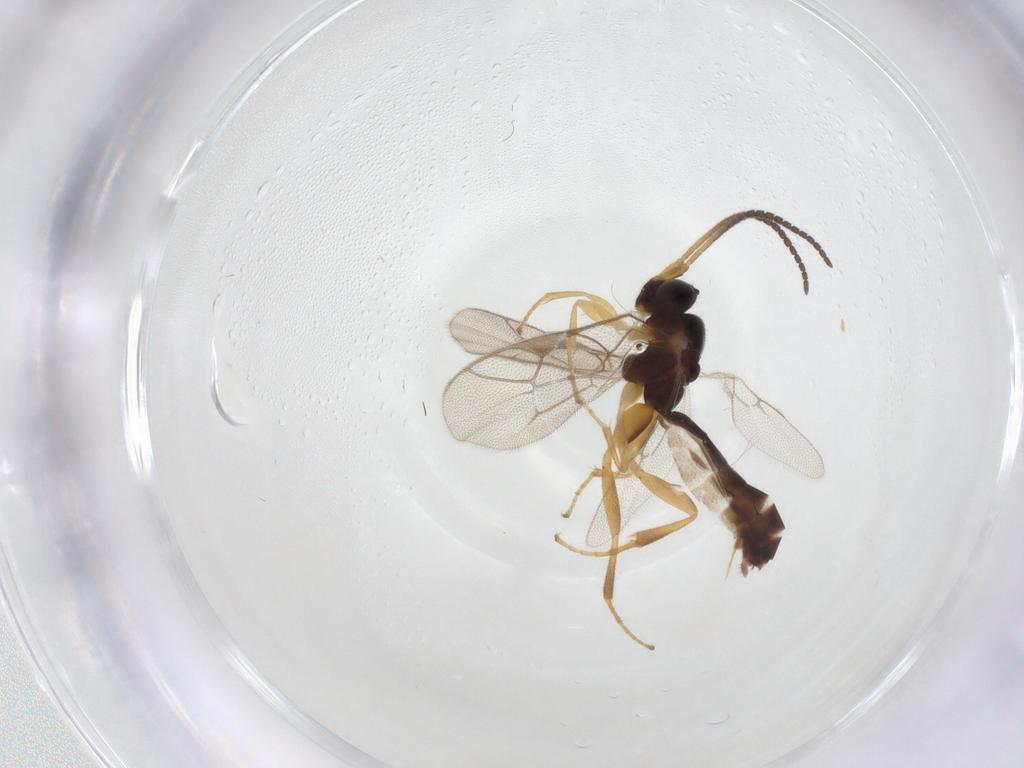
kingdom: Animalia
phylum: Arthropoda
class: Insecta
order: Hymenoptera
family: Ichneumonidae
